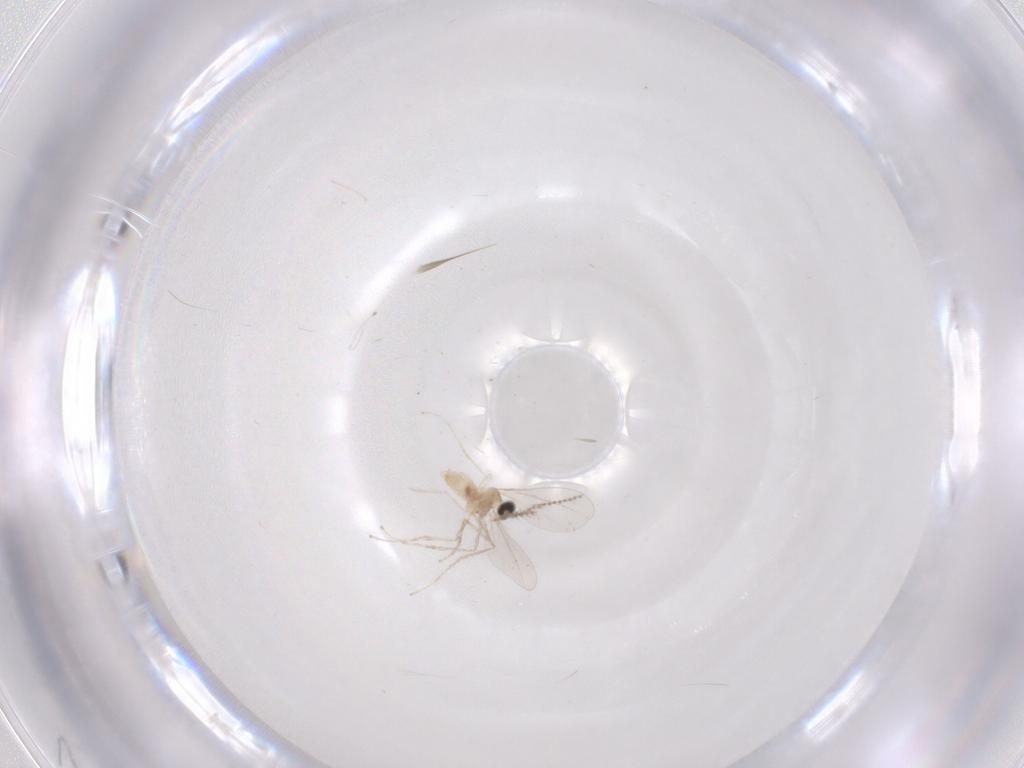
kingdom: Animalia
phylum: Arthropoda
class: Insecta
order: Diptera
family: Cecidomyiidae
